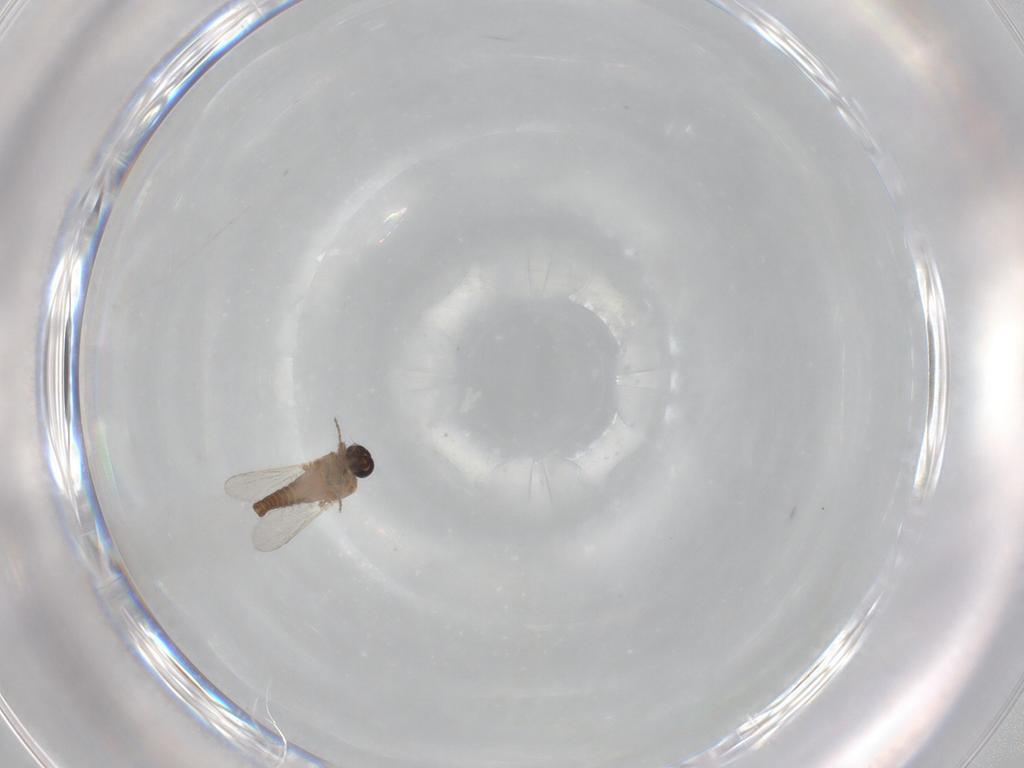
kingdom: Animalia
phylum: Arthropoda
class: Insecta
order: Diptera
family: Ceratopogonidae
